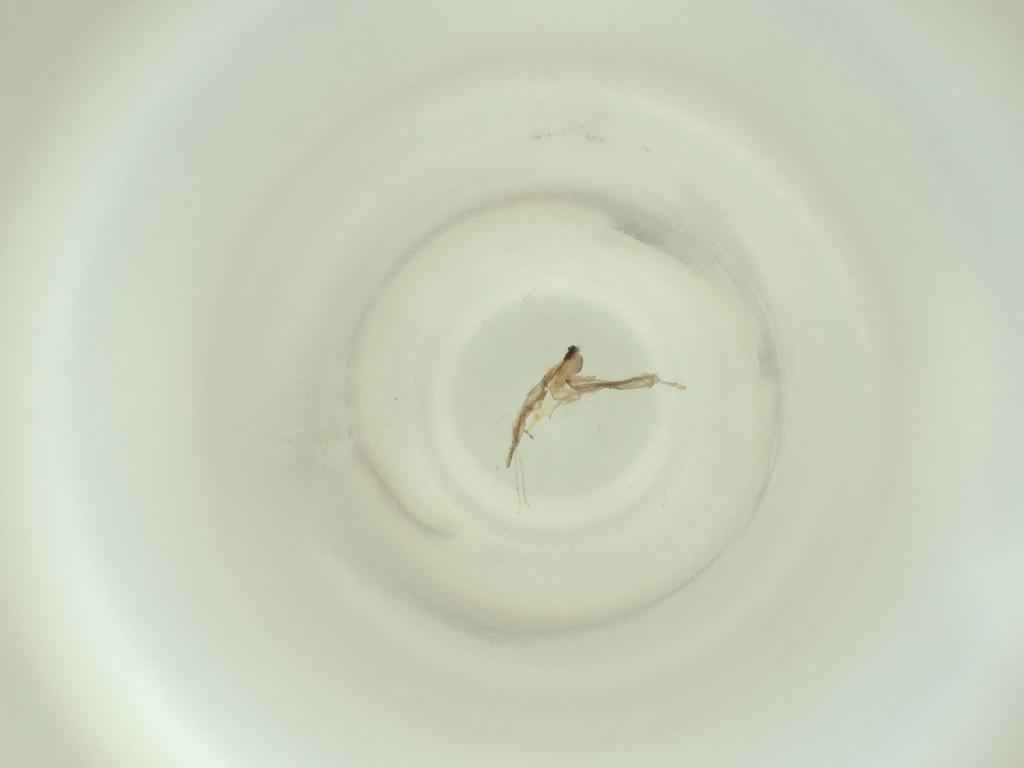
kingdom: Animalia
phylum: Arthropoda
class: Insecta
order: Diptera
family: Cecidomyiidae
